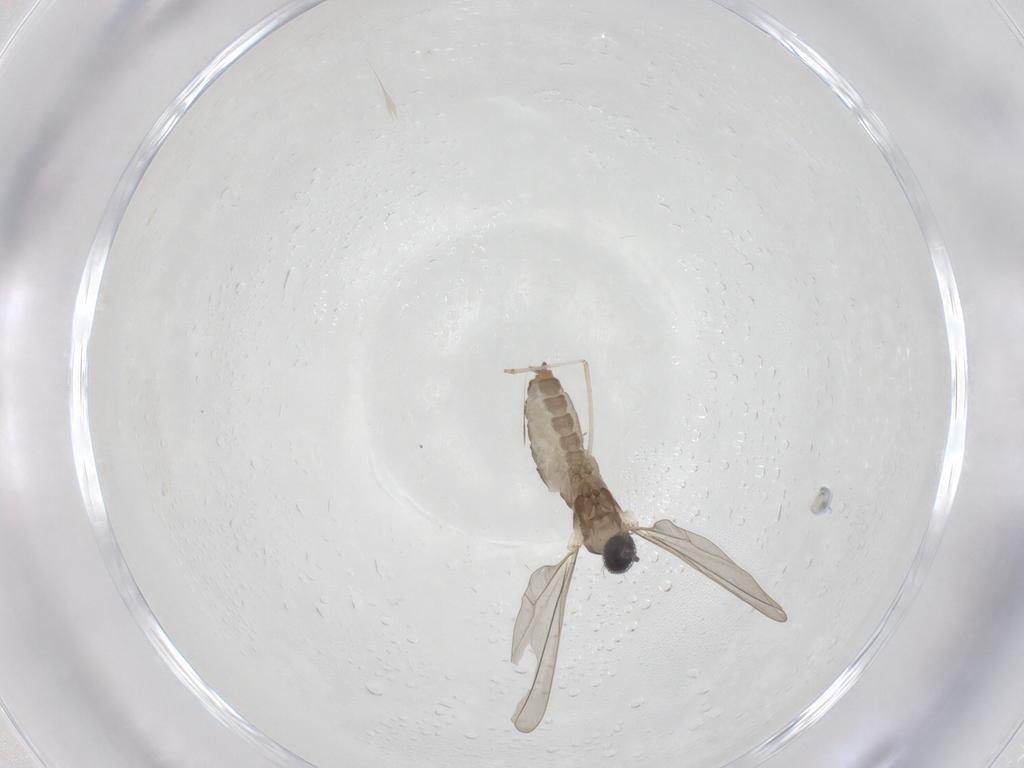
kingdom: Animalia
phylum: Arthropoda
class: Insecta
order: Diptera
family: Cecidomyiidae
